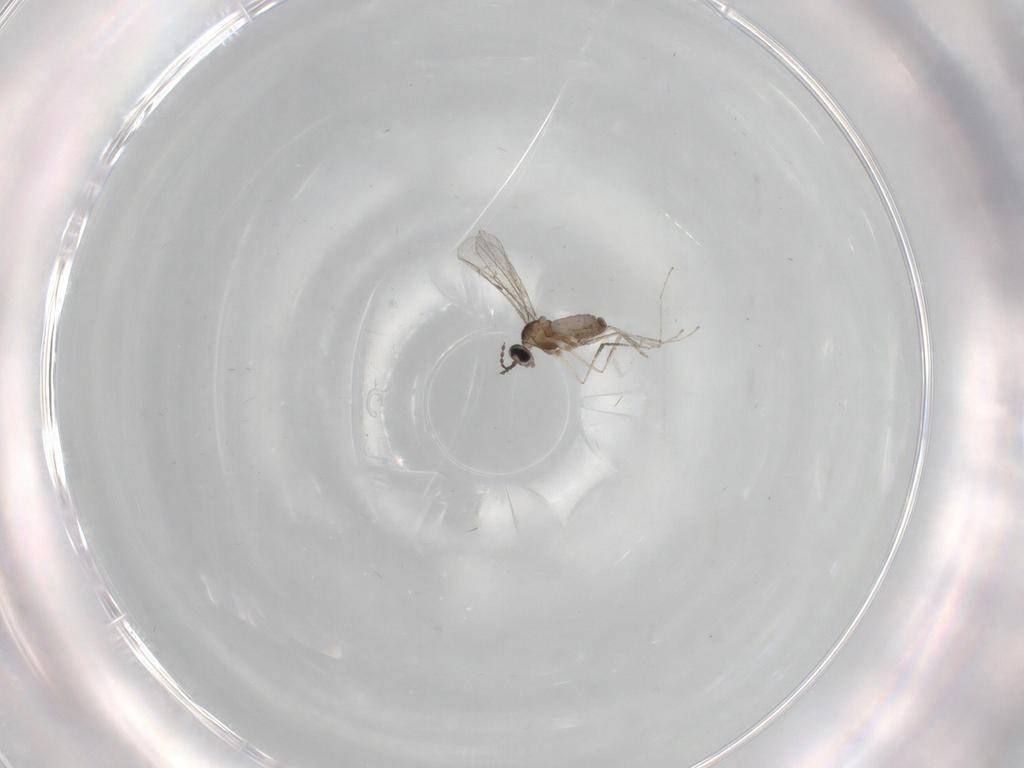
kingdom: Animalia
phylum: Arthropoda
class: Insecta
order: Diptera
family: Cecidomyiidae
